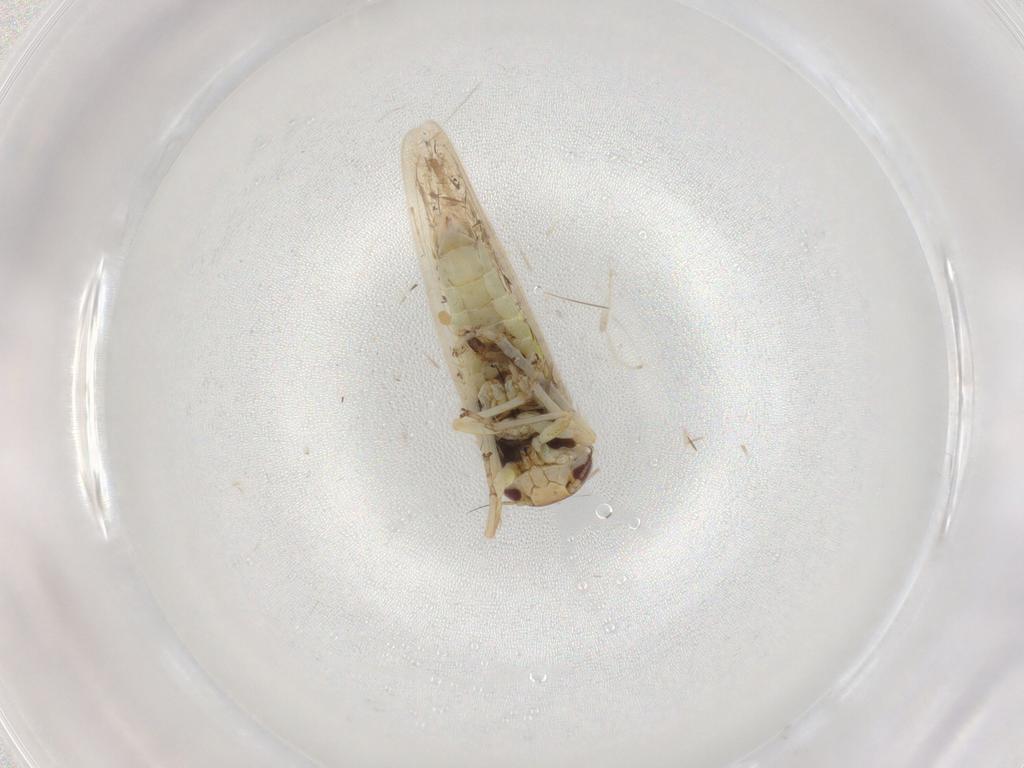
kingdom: Animalia
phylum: Arthropoda
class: Insecta
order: Hemiptera
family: Cicadellidae
